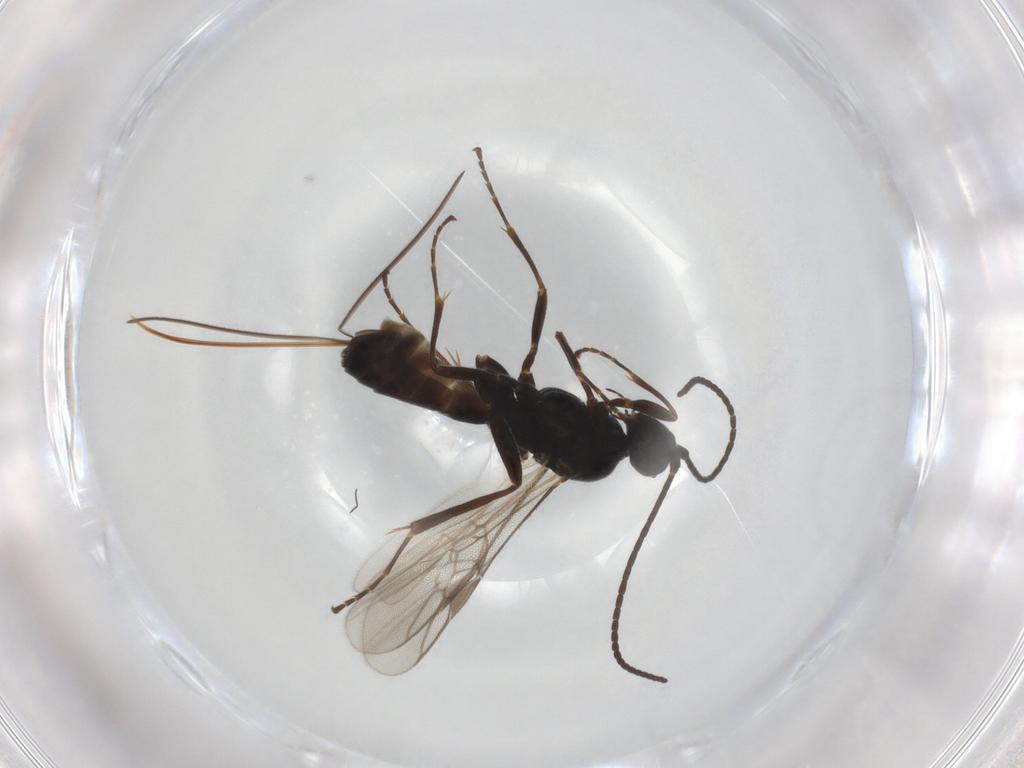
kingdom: Animalia
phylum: Arthropoda
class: Insecta
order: Hymenoptera
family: Braconidae
